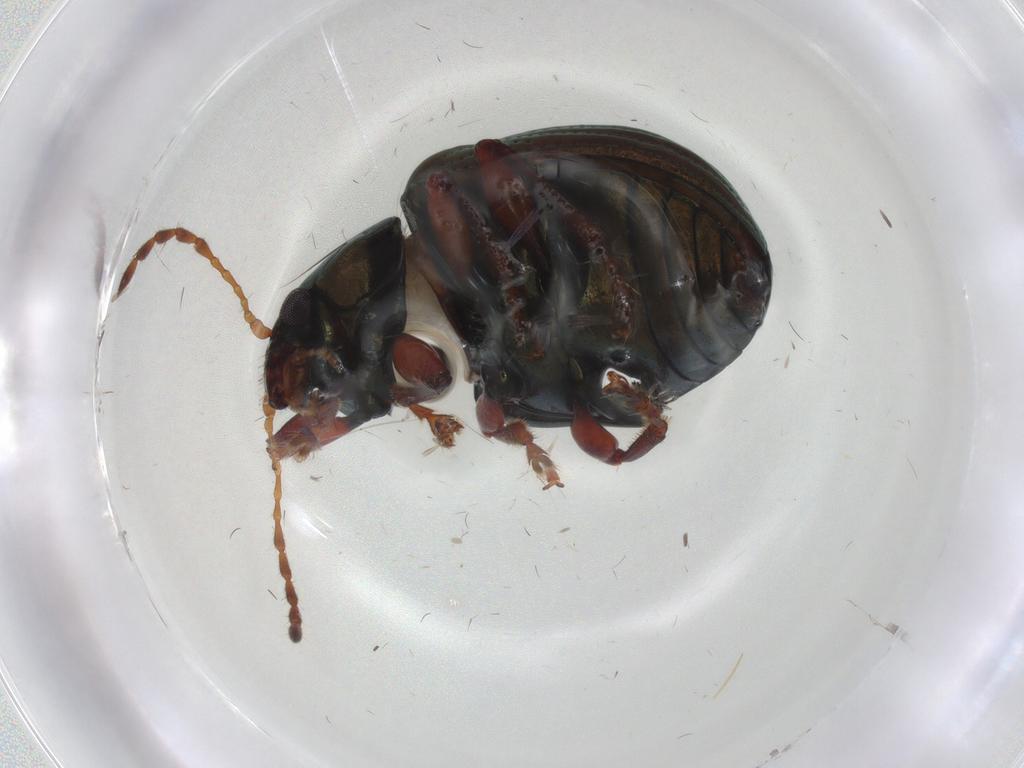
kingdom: Animalia
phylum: Arthropoda
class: Insecta
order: Coleoptera
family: Chrysomelidae
